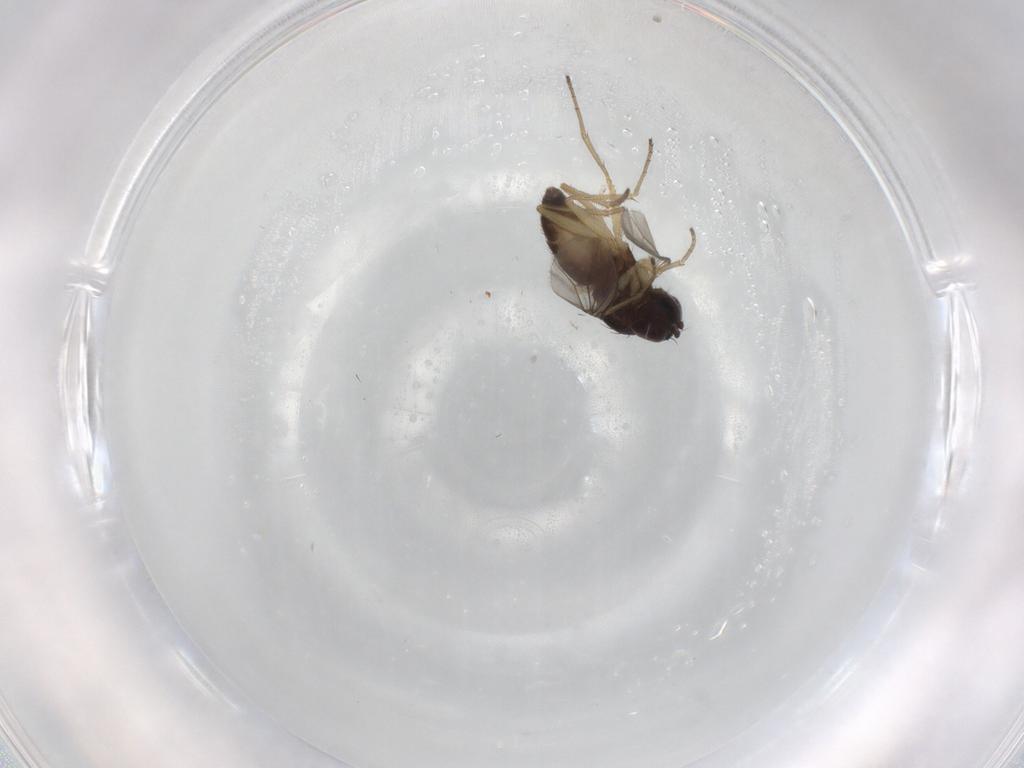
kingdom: Animalia
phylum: Arthropoda
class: Insecta
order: Diptera
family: Dolichopodidae
